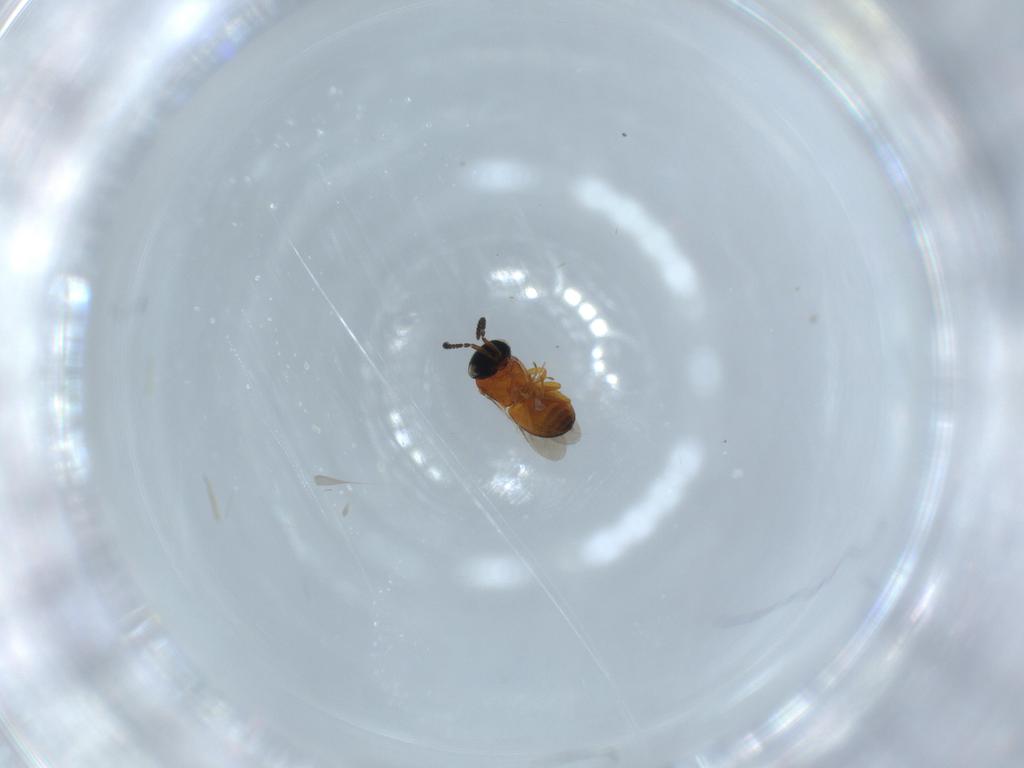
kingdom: Animalia
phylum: Arthropoda
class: Insecta
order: Hymenoptera
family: Scelionidae
